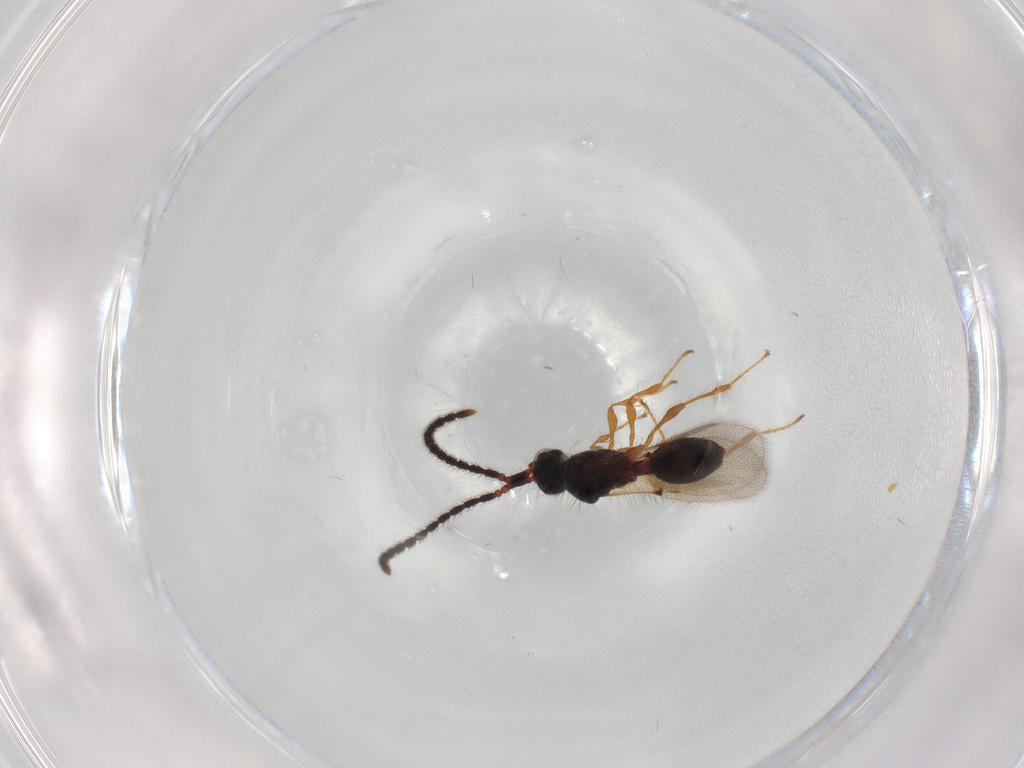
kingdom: Animalia
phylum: Arthropoda
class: Insecta
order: Hymenoptera
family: Diapriidae
